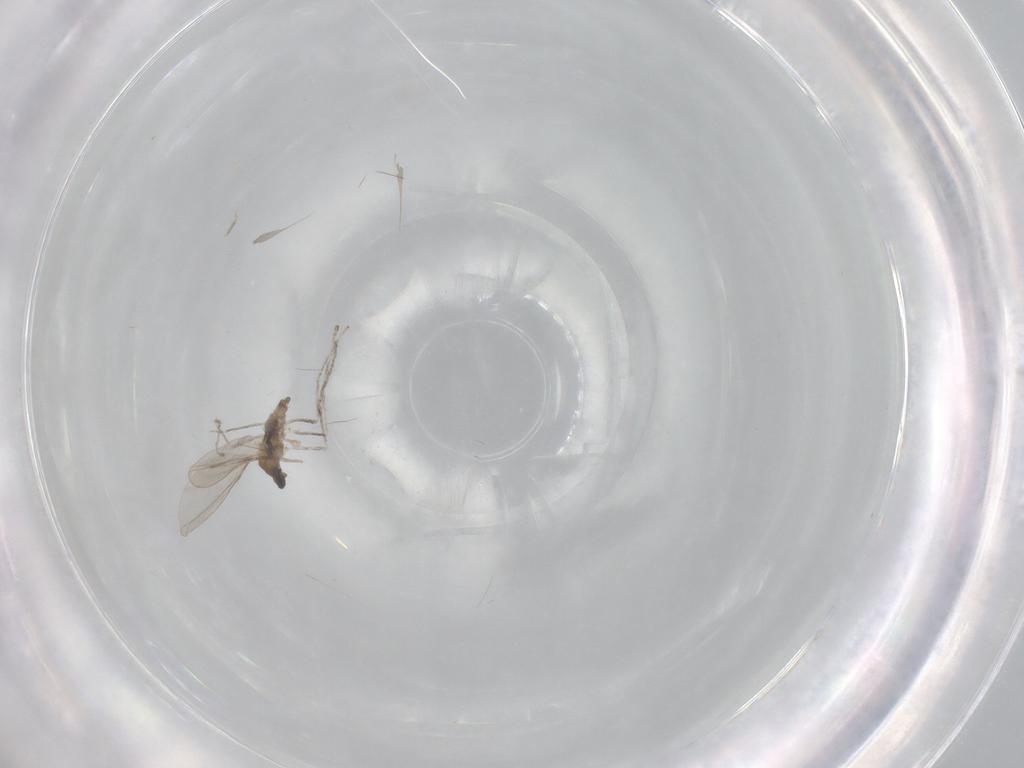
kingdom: Animalia
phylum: Arthropoda
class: Insecta
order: Diptera
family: Cecidomyiidae
